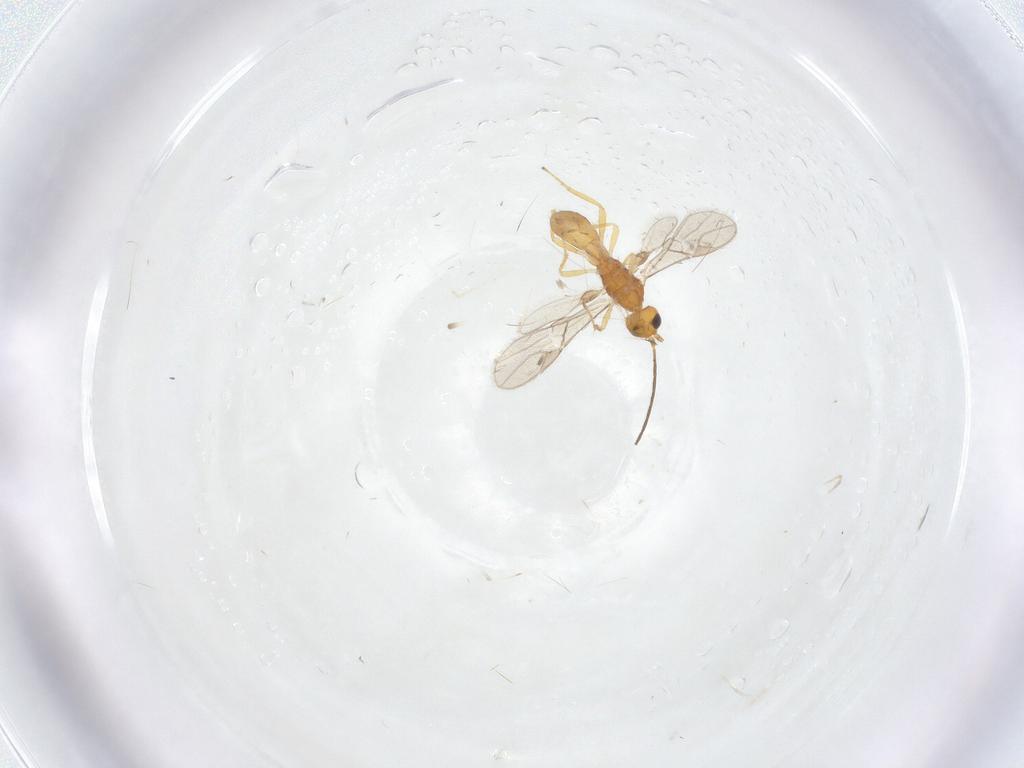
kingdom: Animalia
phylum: Arthropoda
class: Insecta
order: Hymenoptera
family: Braconidae
